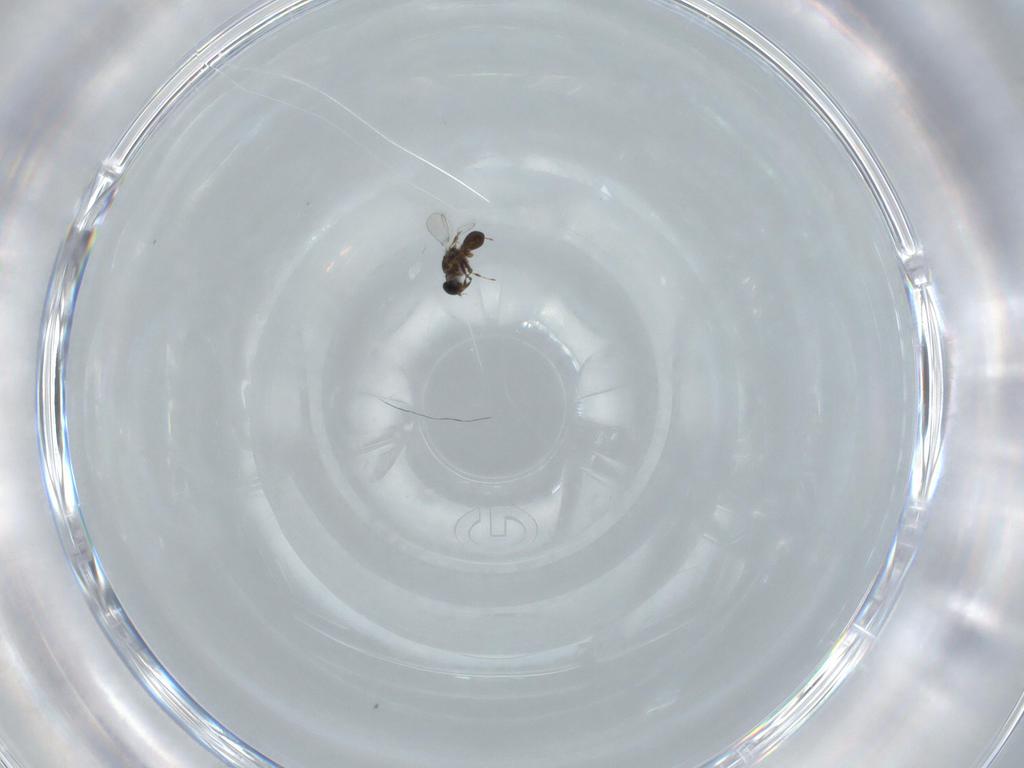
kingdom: Animalia
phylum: Arthropoda
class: Insecta
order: Hymenoptera
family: Platygastridae
